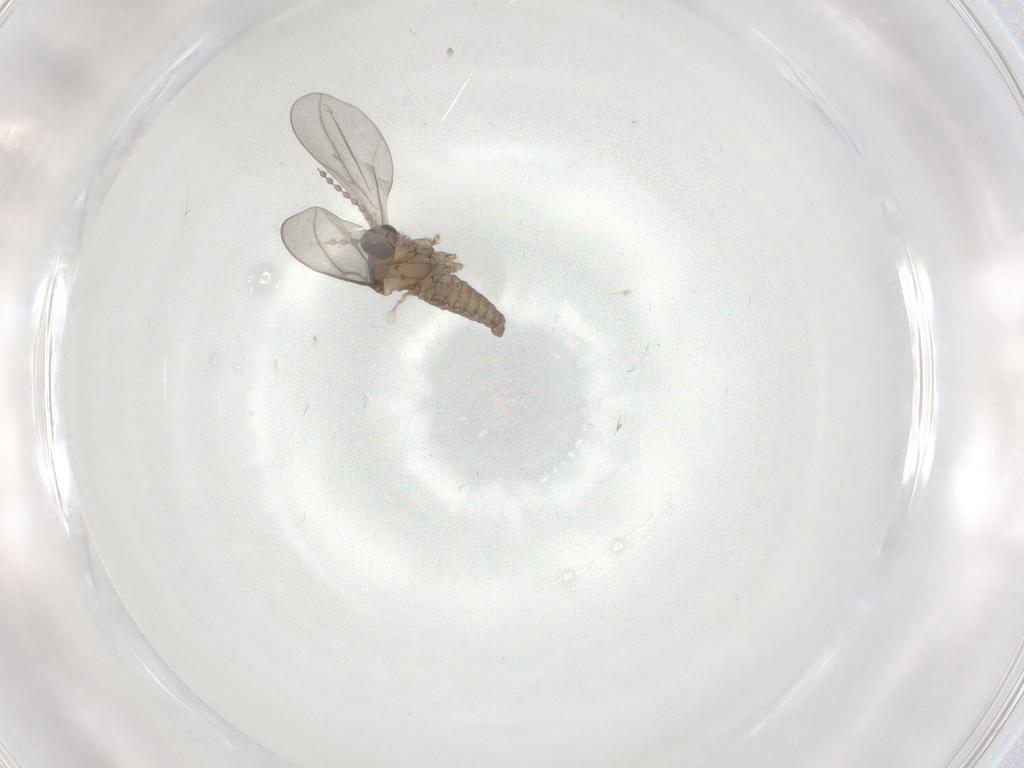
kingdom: Animalia
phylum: Arthropoda
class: Insecta
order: Diptera
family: Cecidomyiidae
